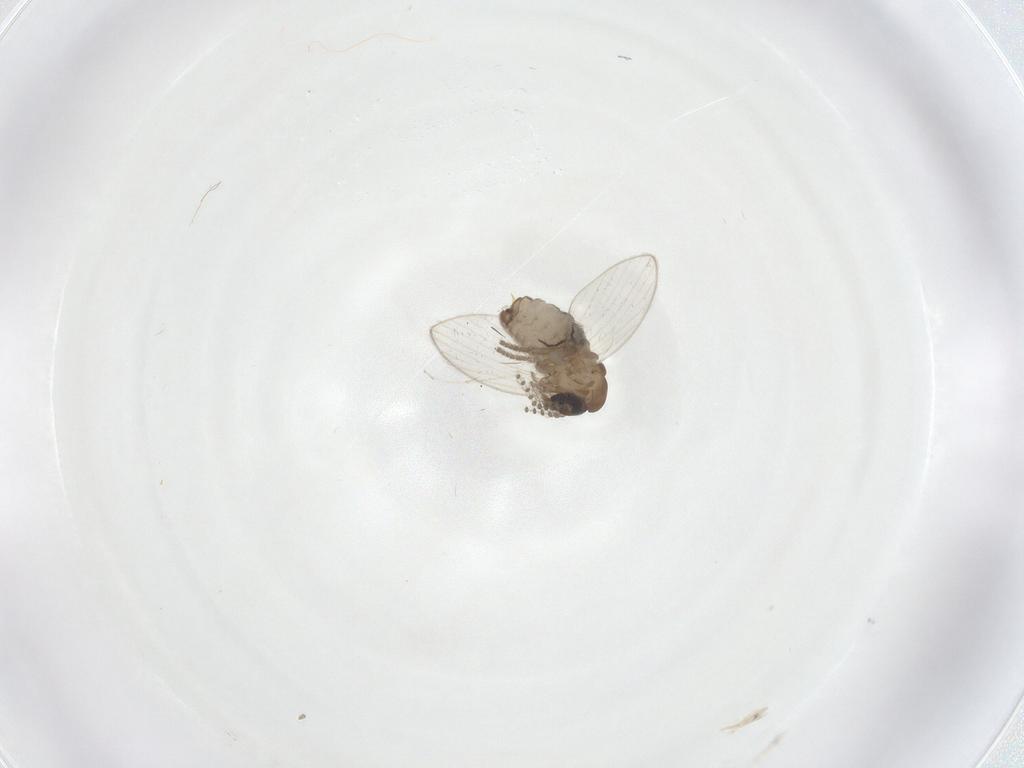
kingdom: Animalia
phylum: Arthropoda
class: Insecta
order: Diptera
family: Psychodidae
